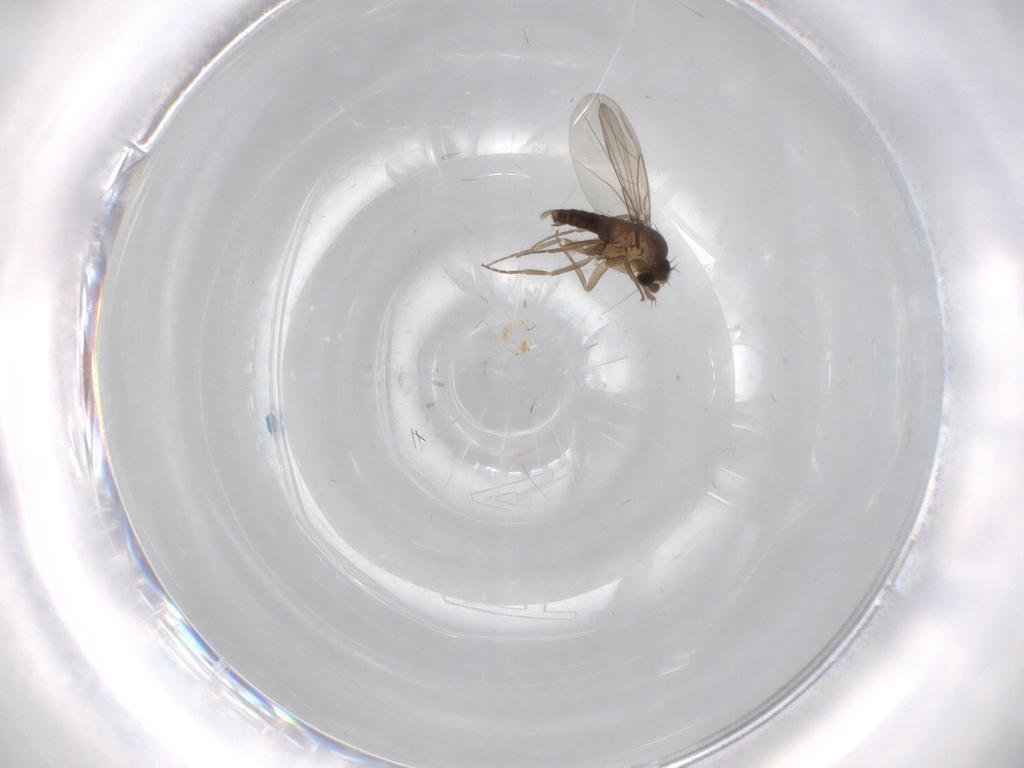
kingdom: Animalia
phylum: Arthropoda
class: Insecta
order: Diptera
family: Phoridae
